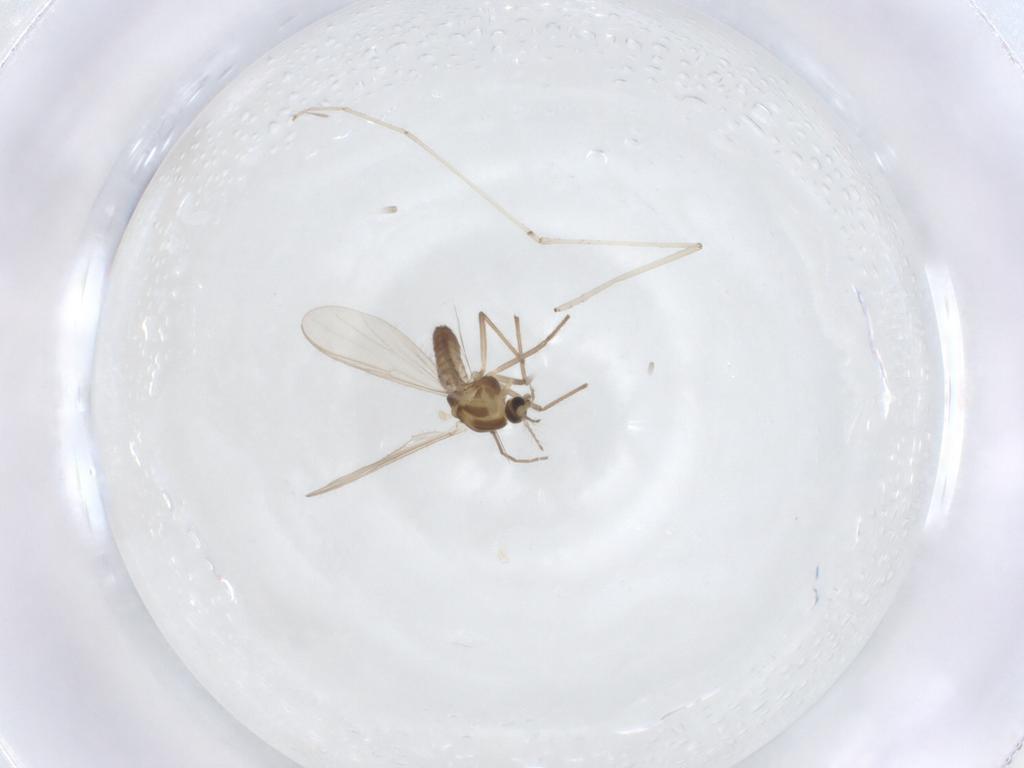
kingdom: Animalia
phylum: Arthropoda
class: Insecta
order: Diptera
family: Chironomidae
